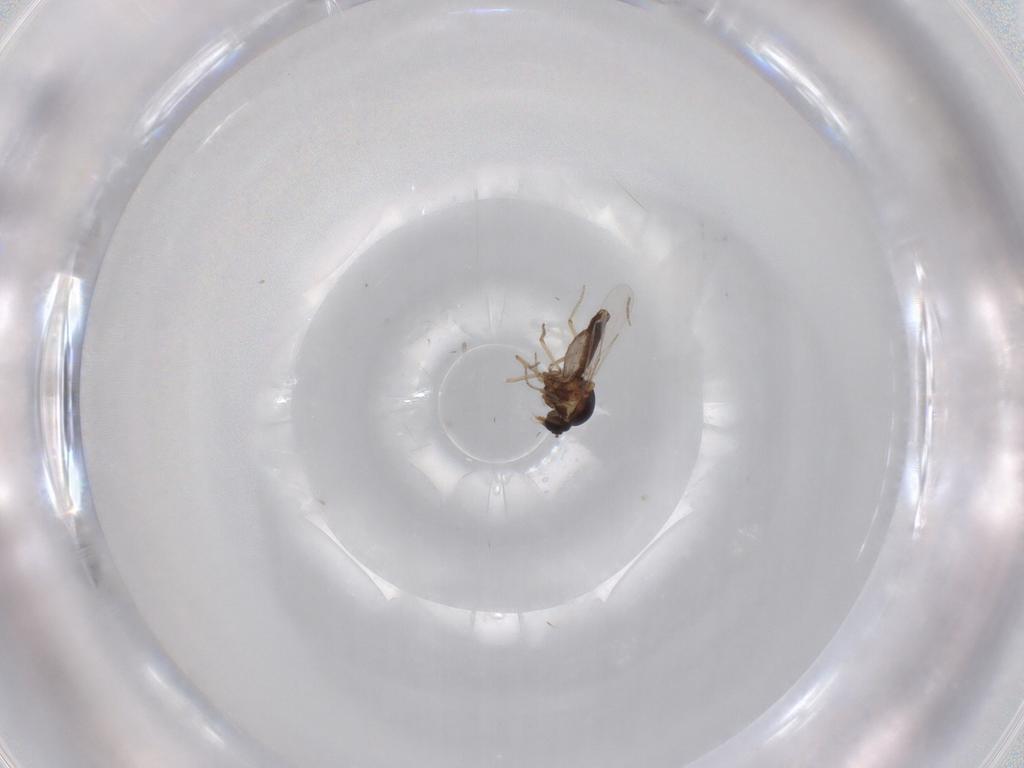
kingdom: Animalia
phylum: Arthropoda
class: Insecta
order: Diptera
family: Ceratopogonidae
